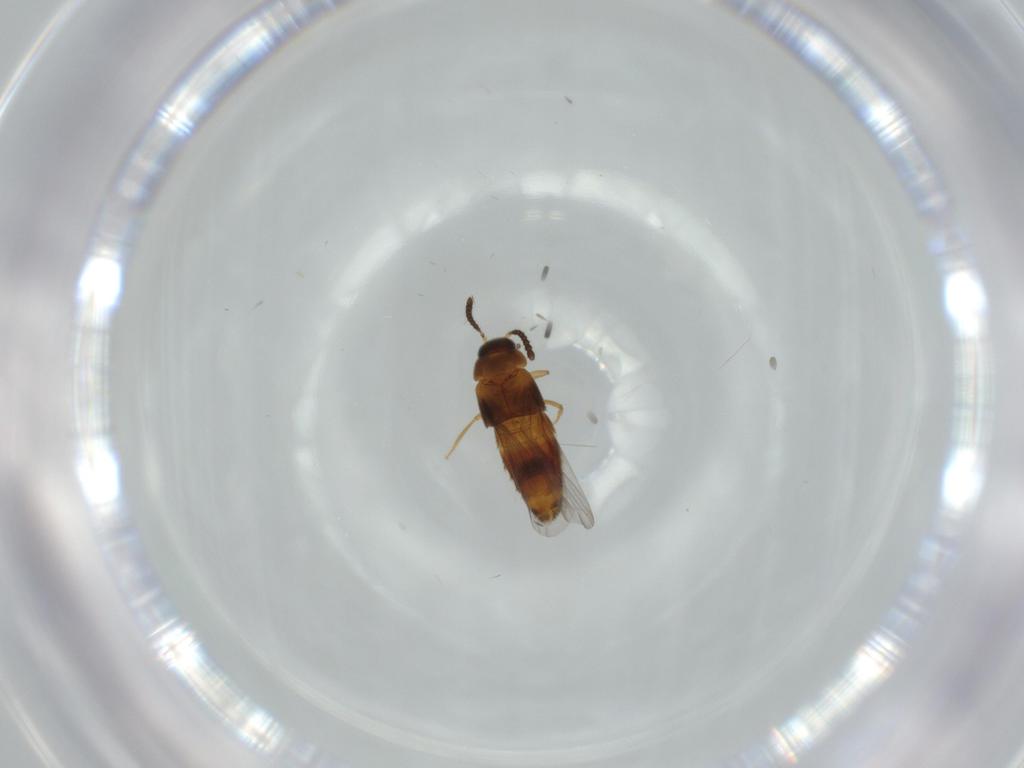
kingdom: Animalia
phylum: Arthropoda
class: Insecta
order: Coleoptera
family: Staphylinidae
